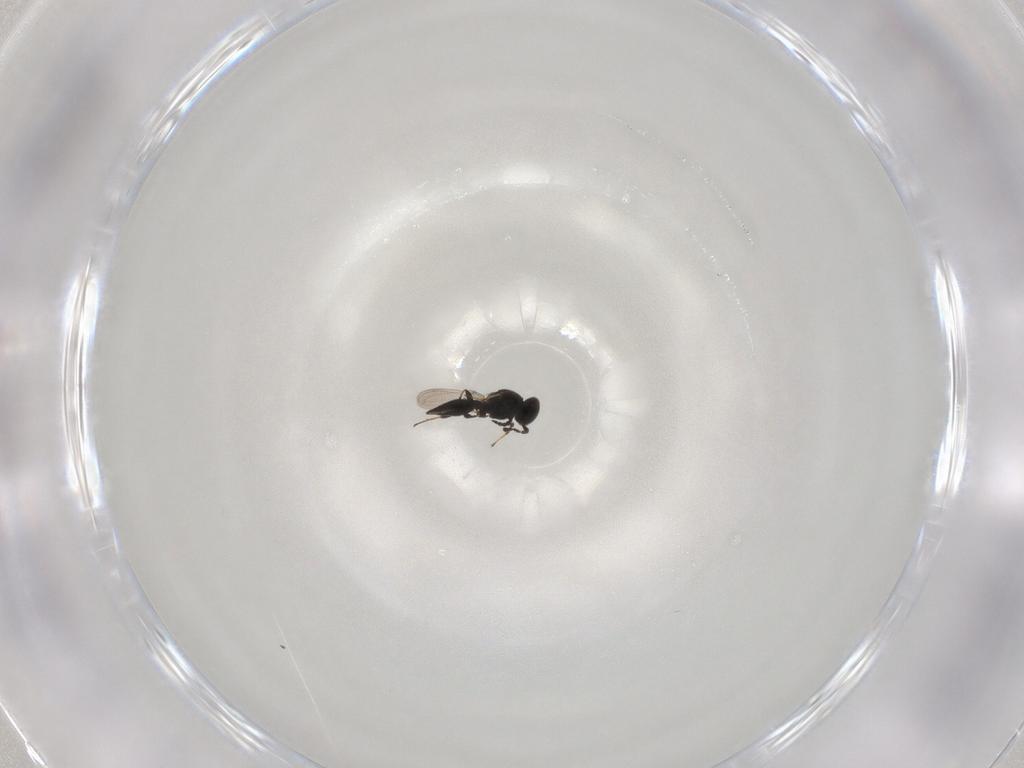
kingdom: Animalia
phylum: Arthropoda
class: Insecta
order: Hymenoptera
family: Platygastridae
